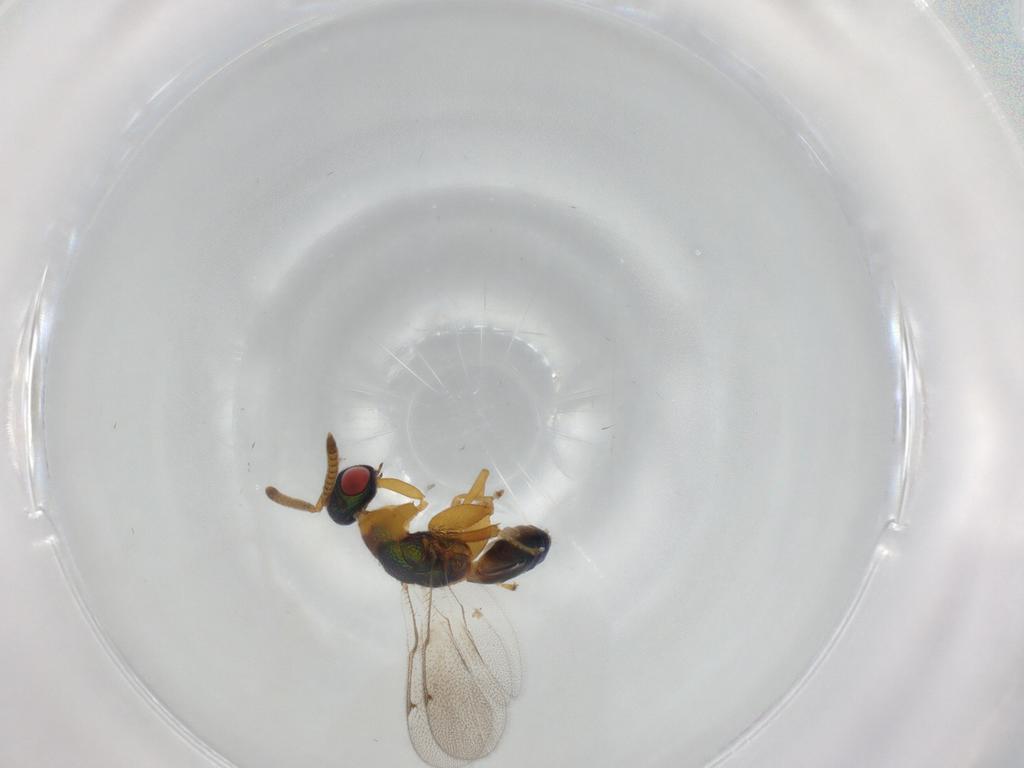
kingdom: Animalia
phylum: Arthropoda
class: Insecta
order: Hymenoptera
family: Torymidae
